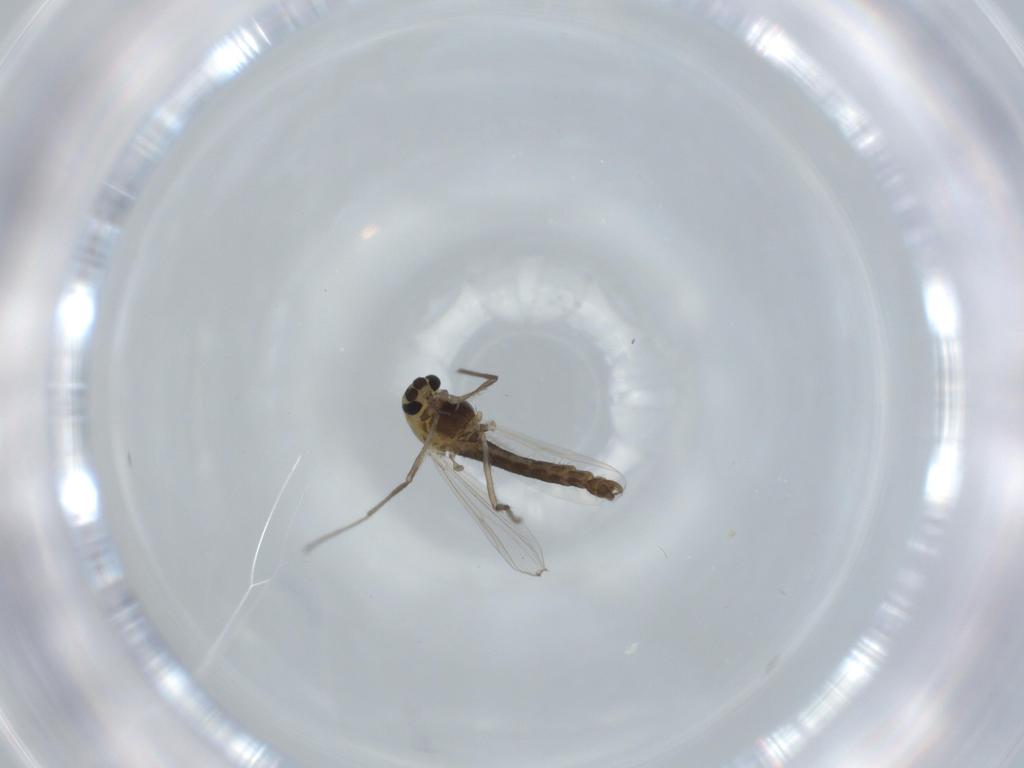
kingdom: Animalia
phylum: Arthropoda
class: Insecta
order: Diptera
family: Chironomidae
